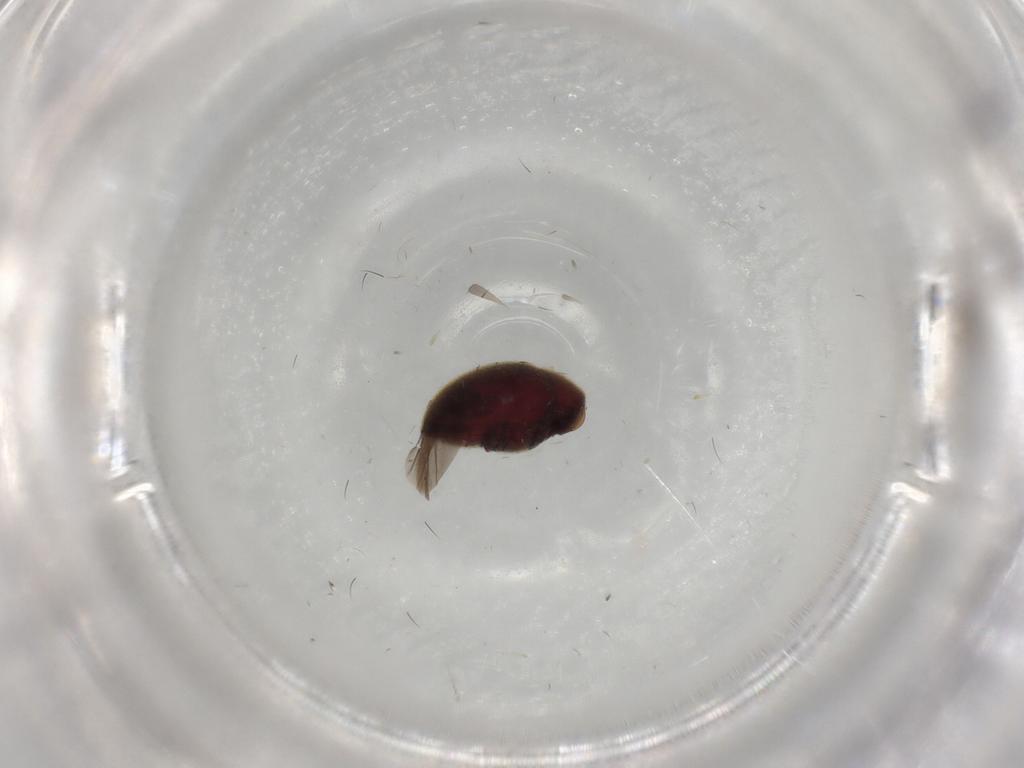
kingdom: Animalia
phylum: Arthropoda
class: Insecta
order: Coleoptera
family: Ptinidae
